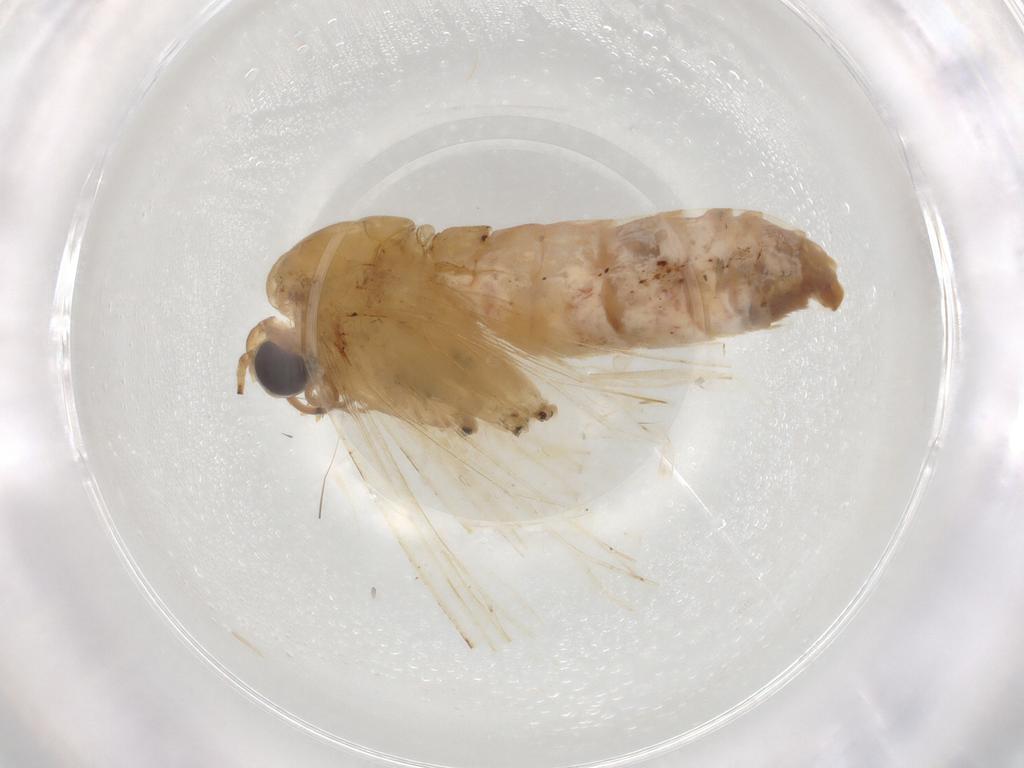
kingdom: Animalia
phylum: Arthropoda
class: Insecta
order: Lepidoptera
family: Geometridae
